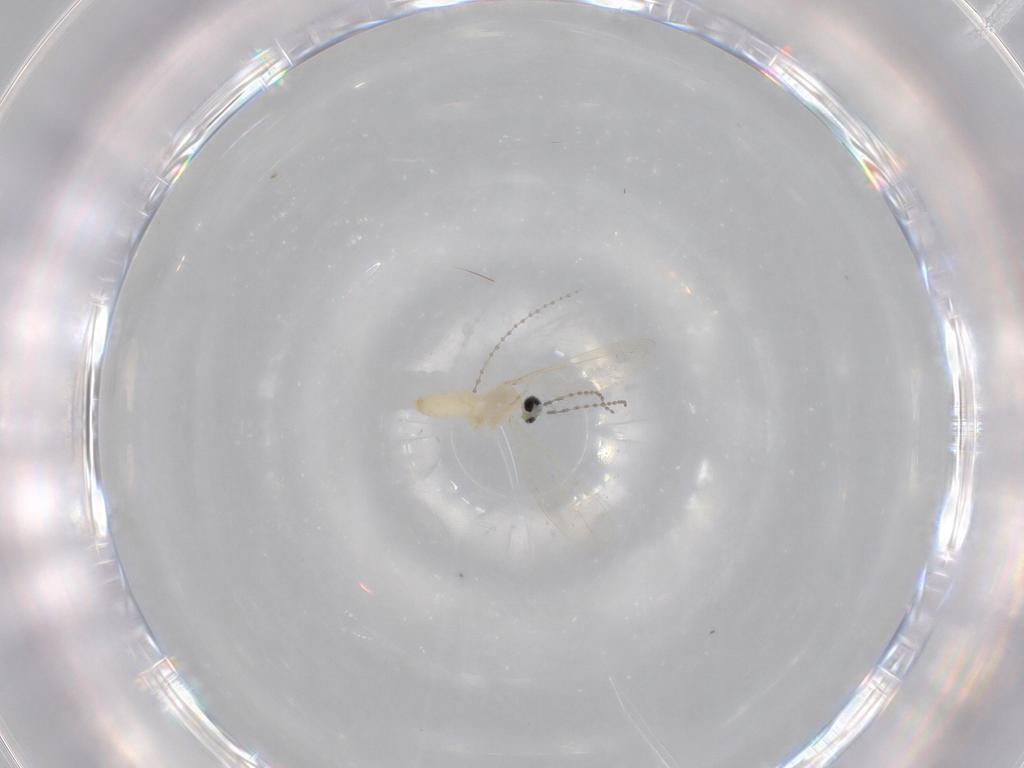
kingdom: Animalia
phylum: Arthropoda
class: Insecta
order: Diptera
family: Cecidomyiidae
